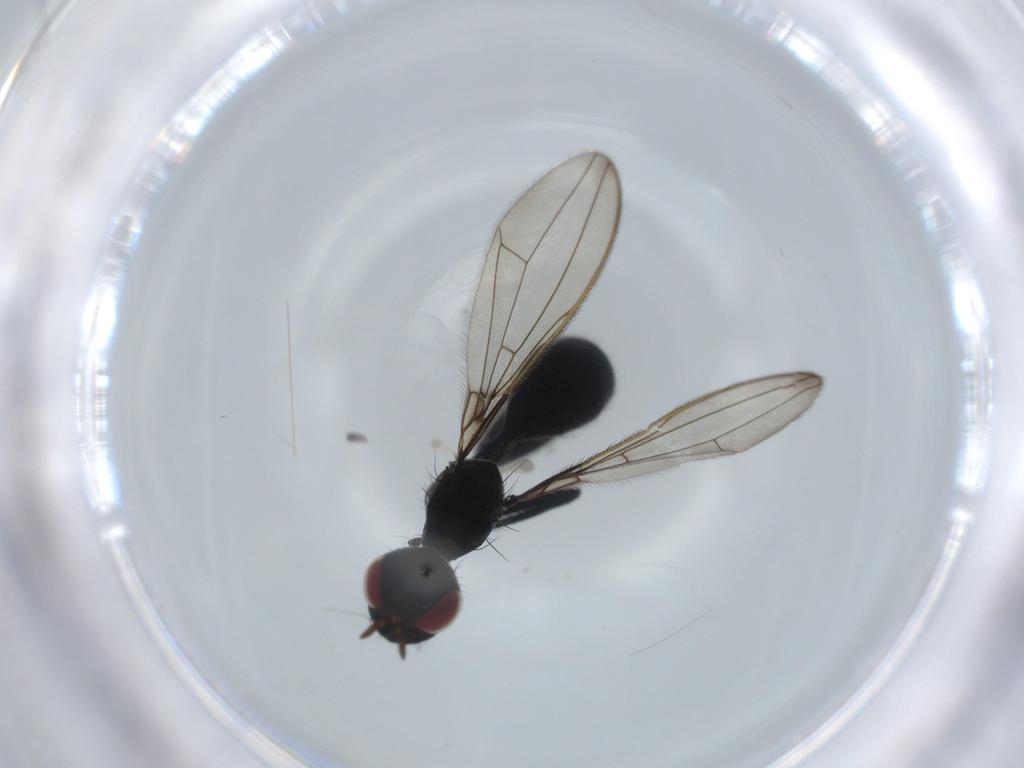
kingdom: Animalia
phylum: Arthropoda
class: Insecta
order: Diptera
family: Richardiidae
